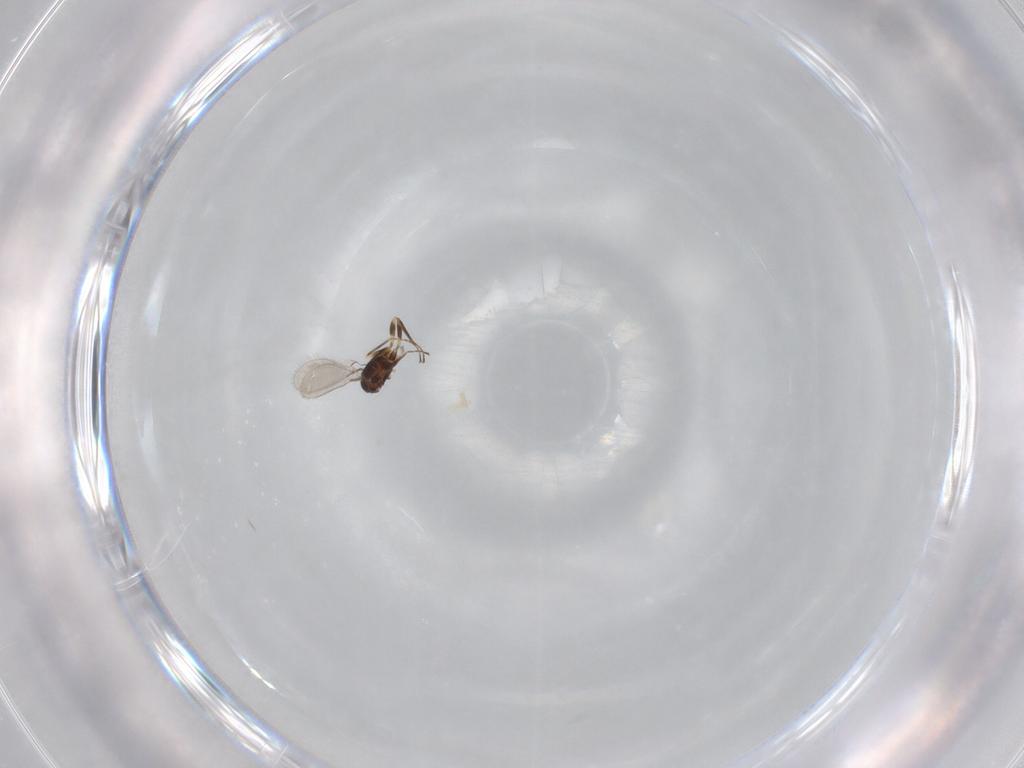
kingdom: Animalia
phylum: Arthropoda
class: Insecta
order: Hymenoptera
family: Mymaridae
